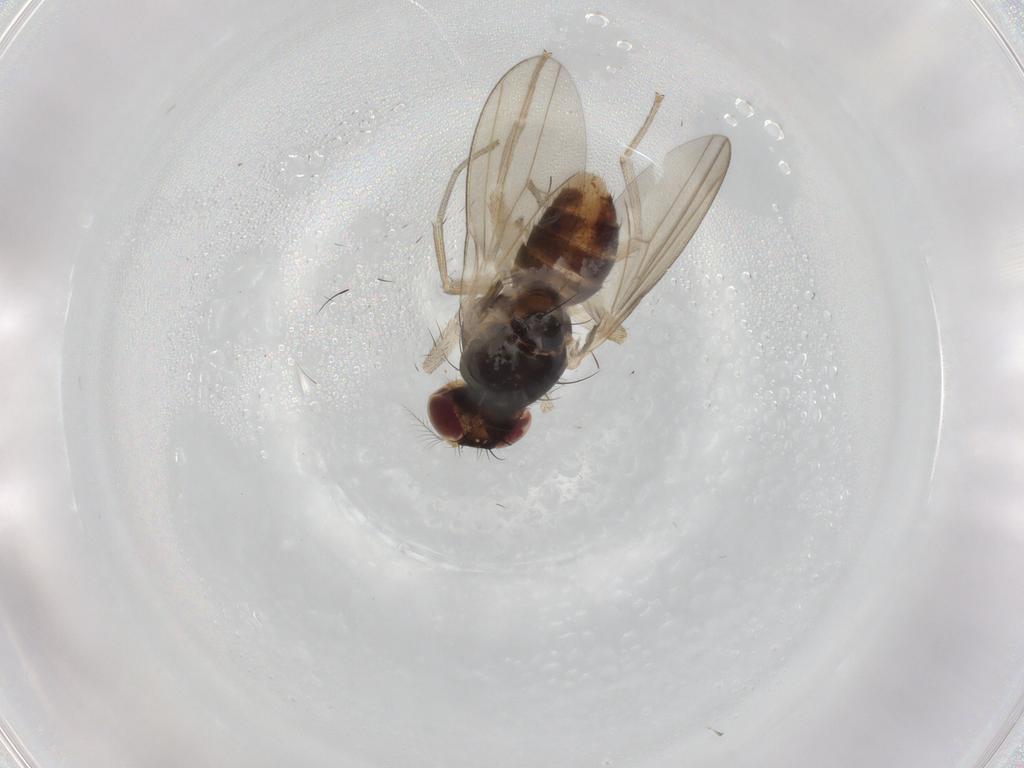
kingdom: Animalia
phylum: Arthropoda
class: Insecta
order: Diptera
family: Lauxaniidae
